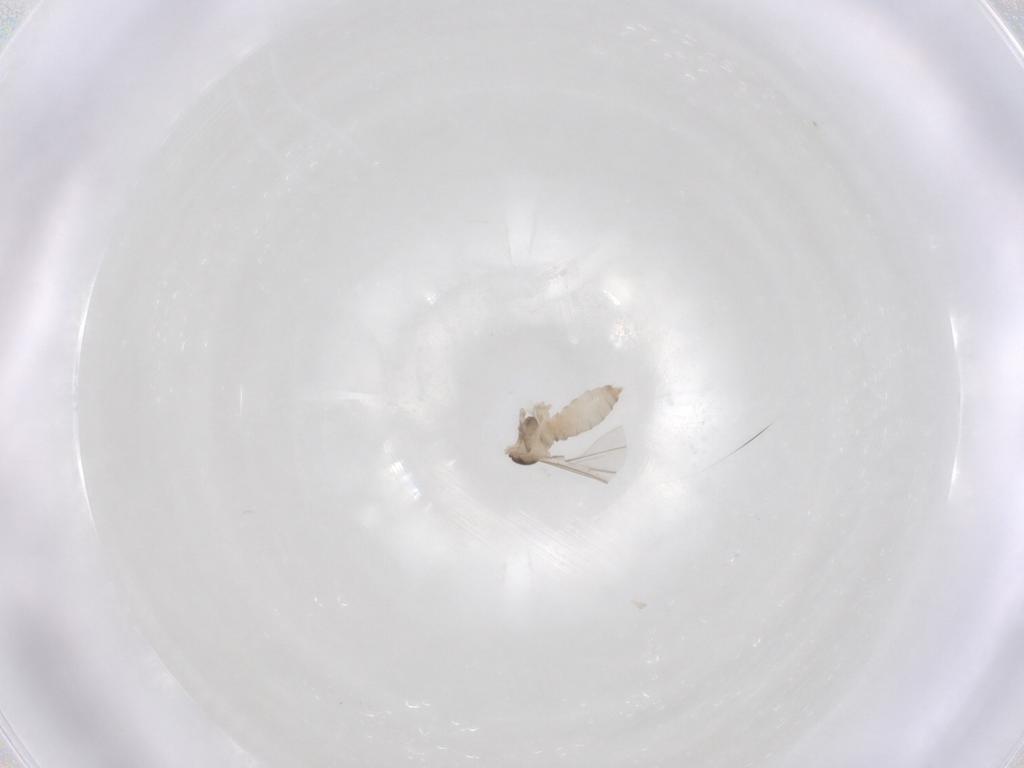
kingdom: Animalia
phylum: Arthropoda
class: Insecta
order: Diptera
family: Cecidomyiidae
